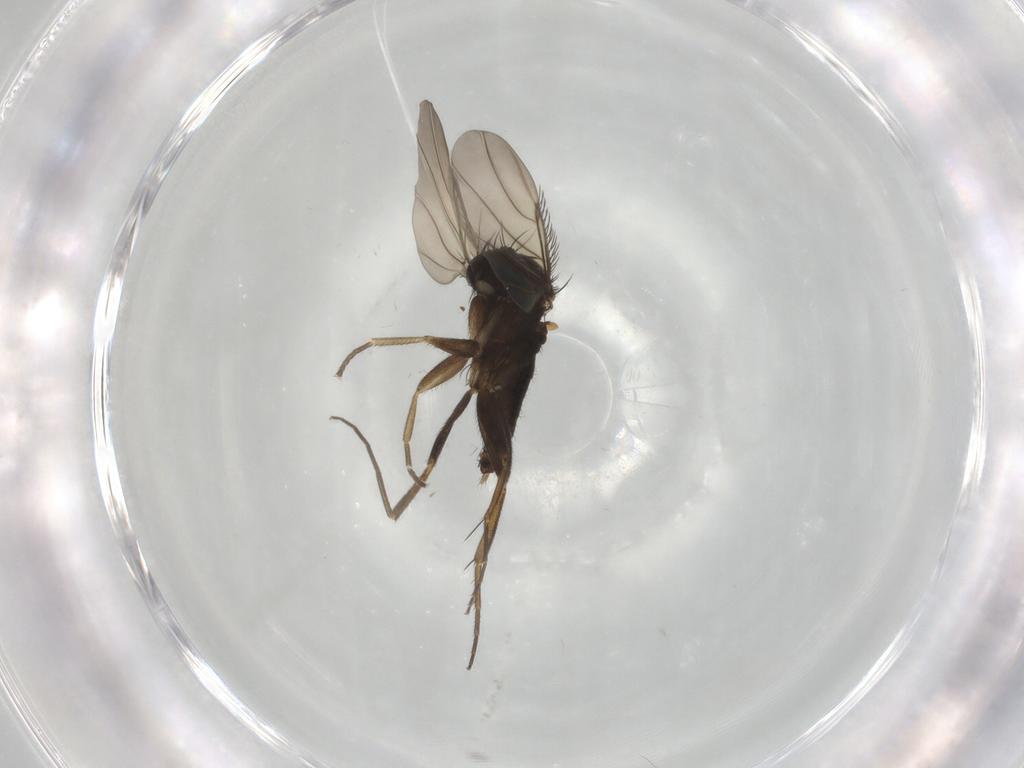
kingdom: Animalia
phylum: Arthropoda
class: Insecta
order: Diptera
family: Phoridae
